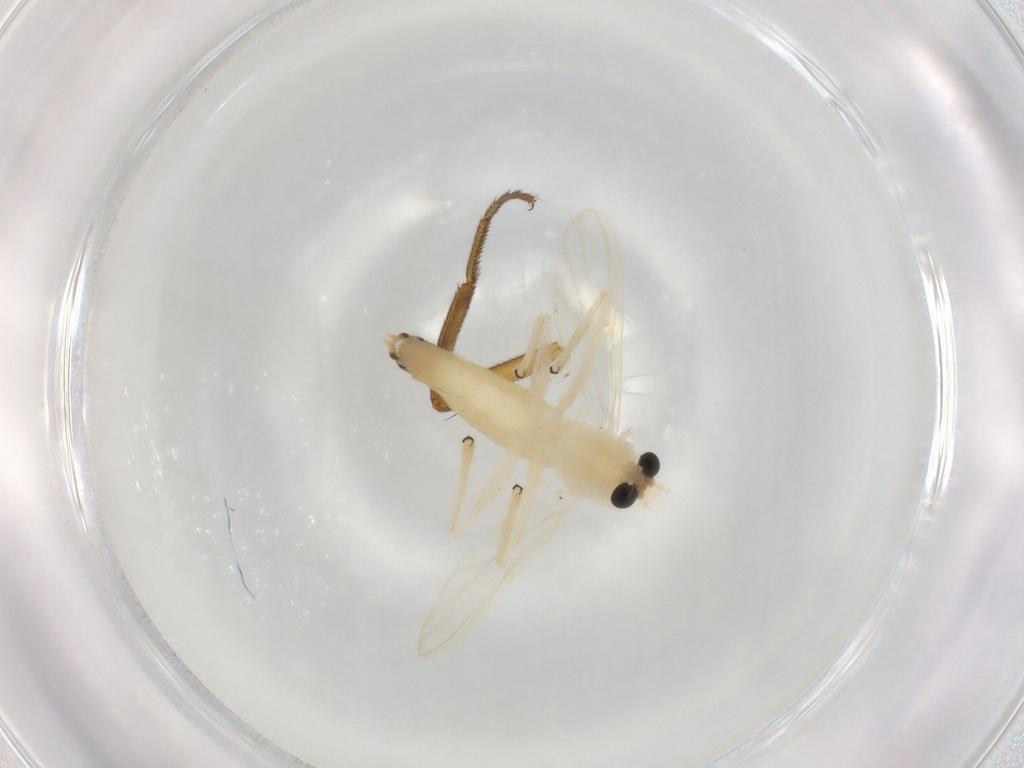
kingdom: Animalia
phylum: Arthropoda
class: Insecta
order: Diptera
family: Chironomidae
